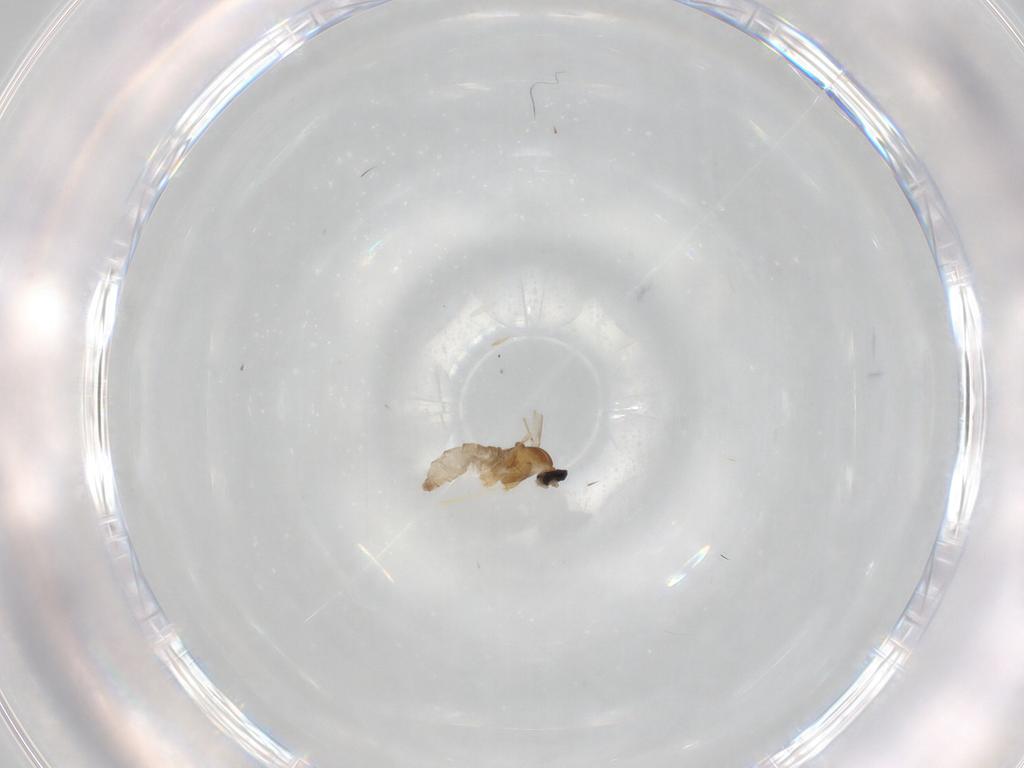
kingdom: Animalia
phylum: Arthropoda
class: Insecta
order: Diptera
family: Cecidomyiidae
